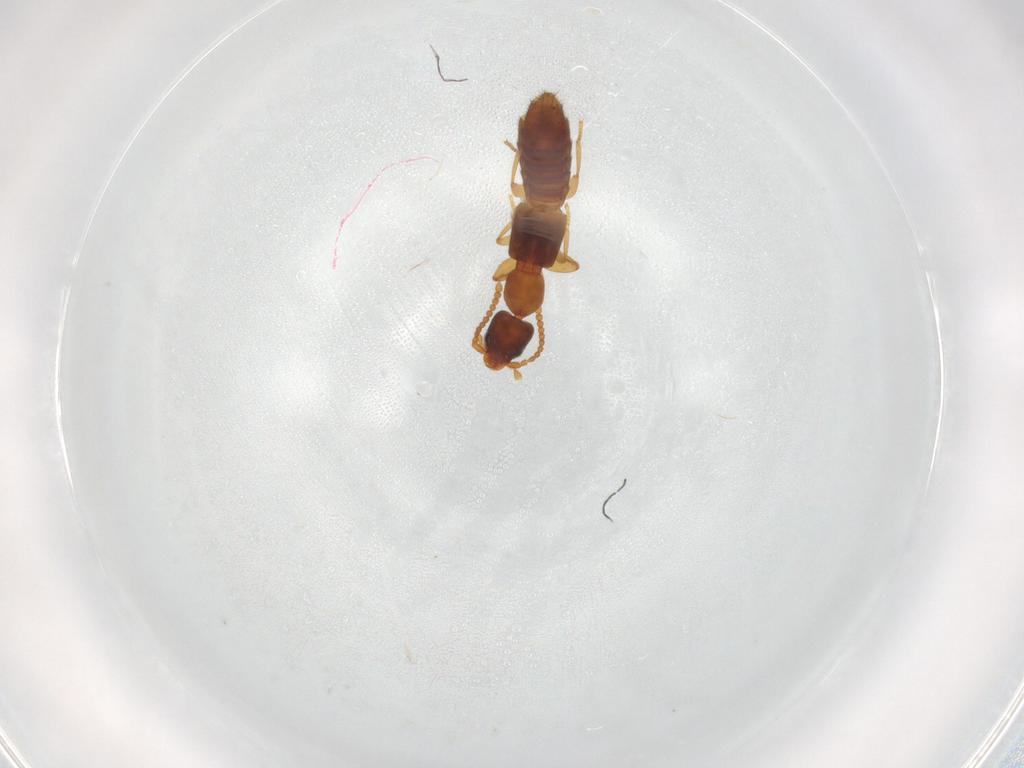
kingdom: Animalia
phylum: Arthropoda
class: Insecta
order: Coleoptera
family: Carabidae
